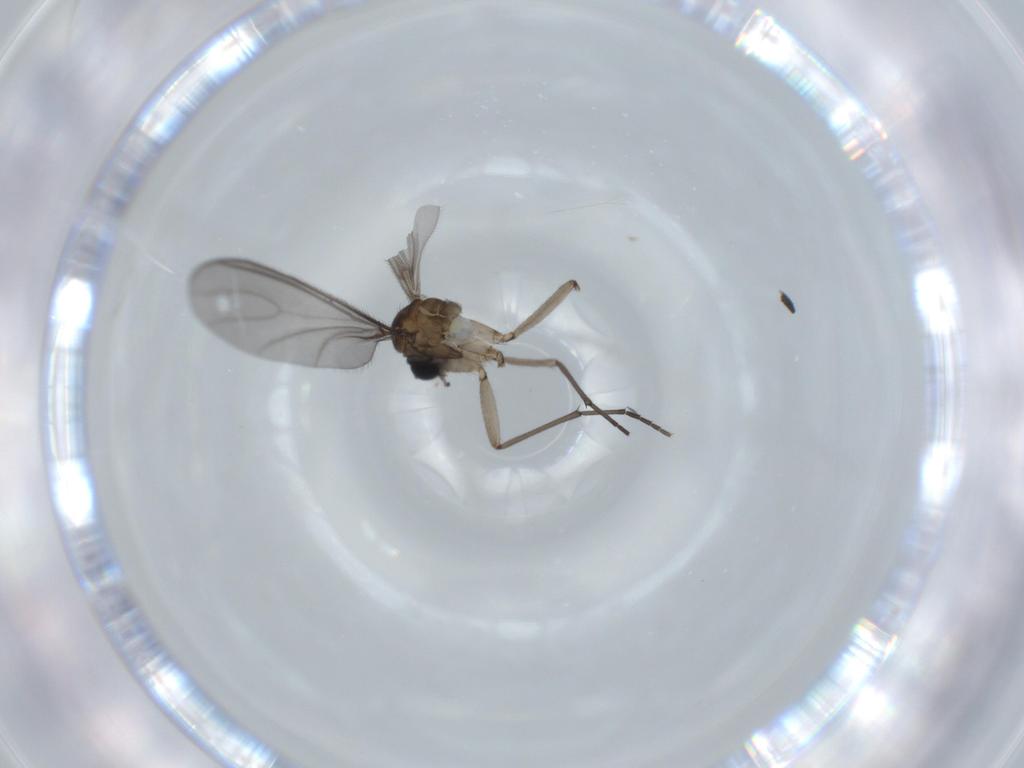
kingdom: Animalia
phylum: Arthropoda
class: Insecta
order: Diptera
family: Sciaridae
